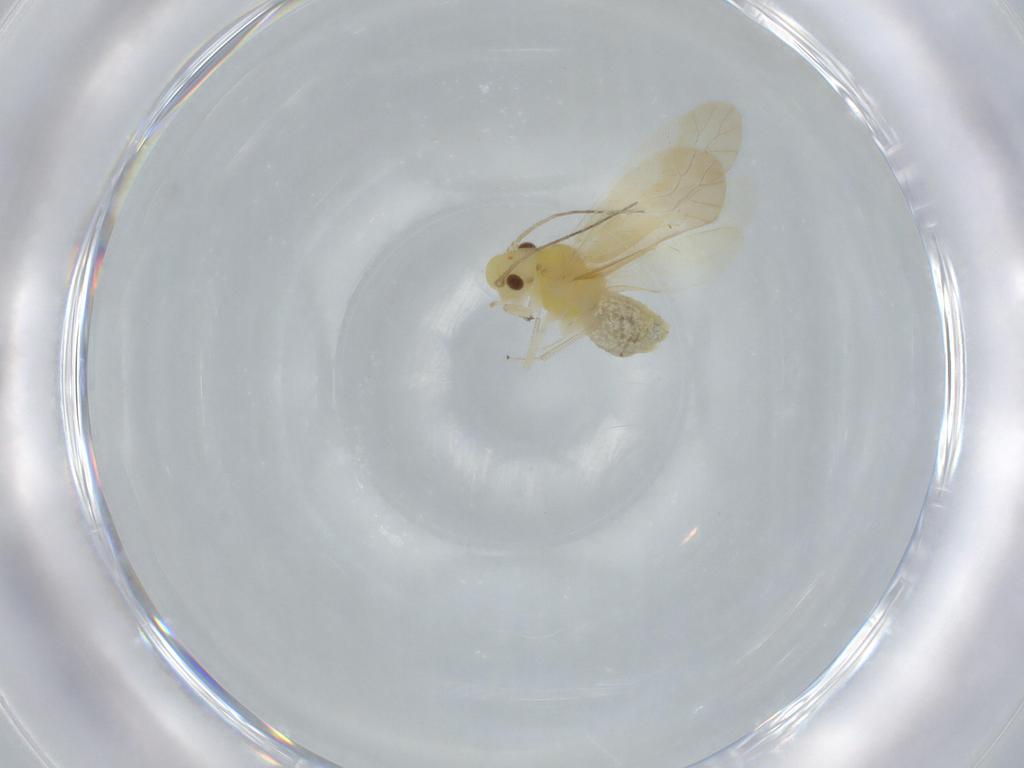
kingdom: Animalia
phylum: Arthropoda
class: Insecta
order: Psocodea
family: Caeciliusidae
